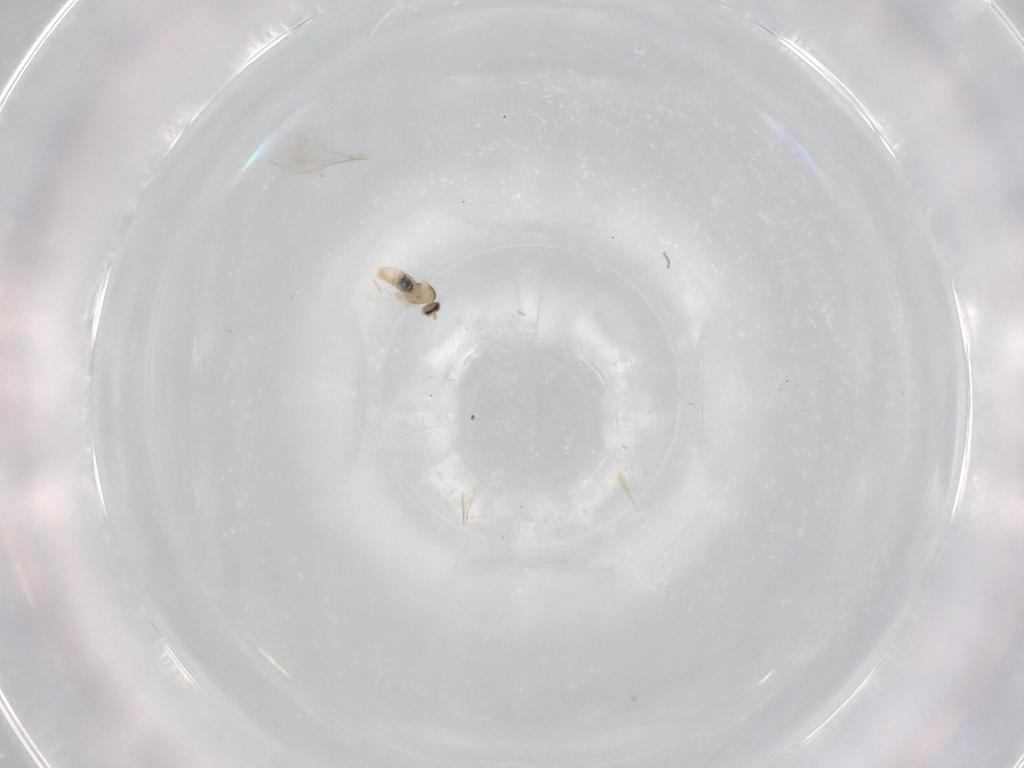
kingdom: Animalia
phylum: Arthropoda
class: Insecta
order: Diptera
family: Cecidomyiidae
